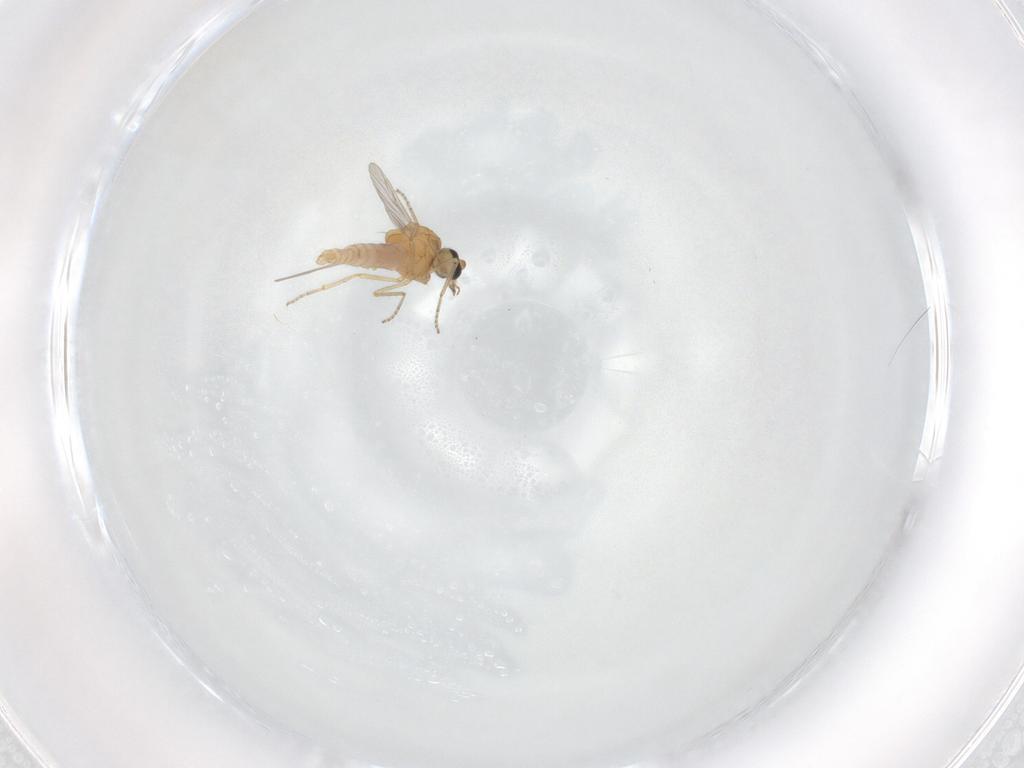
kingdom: Animalia
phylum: Arthropoda
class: Insecta
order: Diptera
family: Ceratopogonidae
